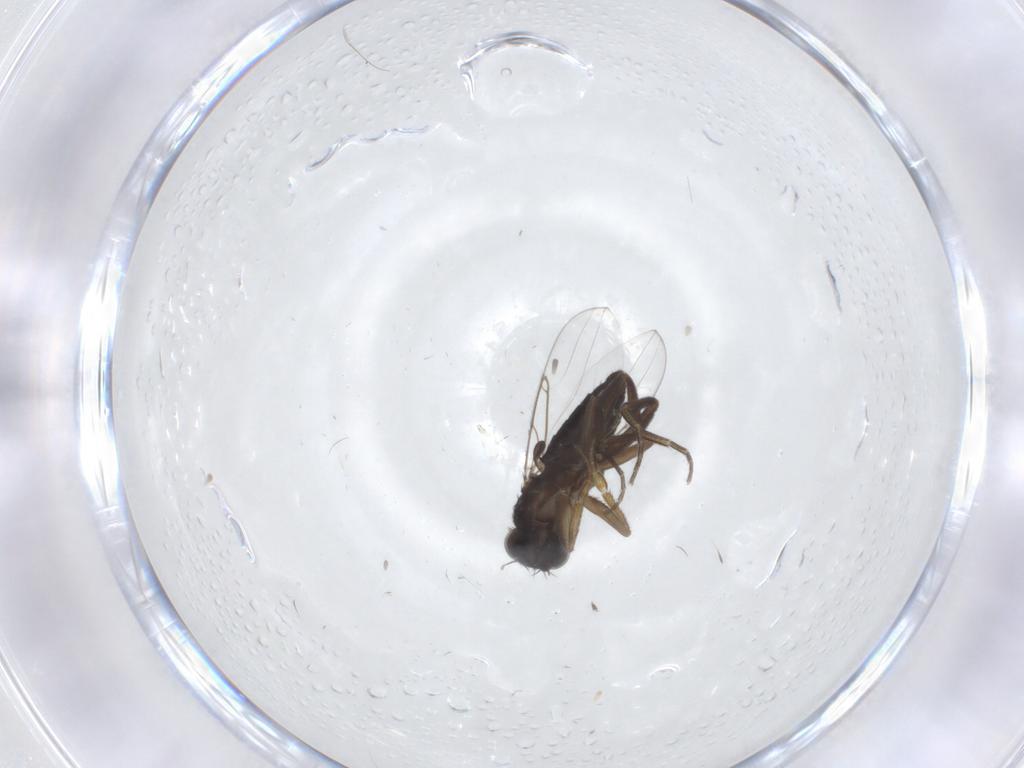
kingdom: Animalia
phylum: Arthropoda
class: Insecta
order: Diptera
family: Phoridae
